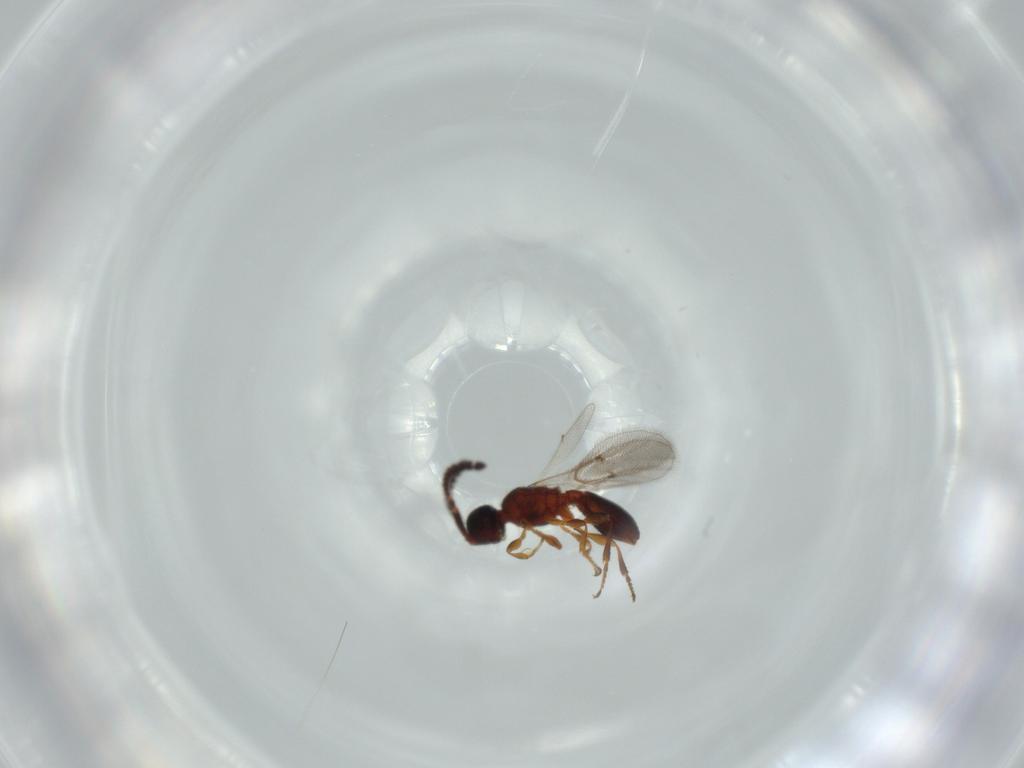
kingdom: Animalia
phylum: Arthropoda
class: Insecta
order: Hymenoptera
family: Diapriidae
